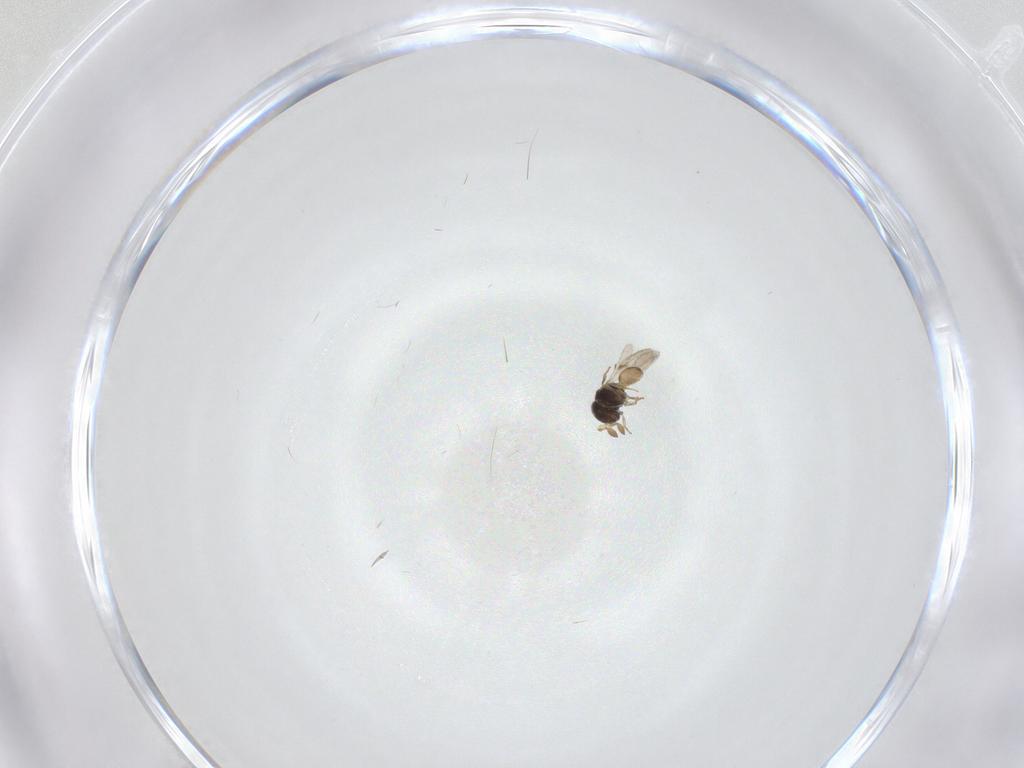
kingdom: Animalia
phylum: Arthropoda
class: Insecta
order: Hymenoptera
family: Scelionidae
